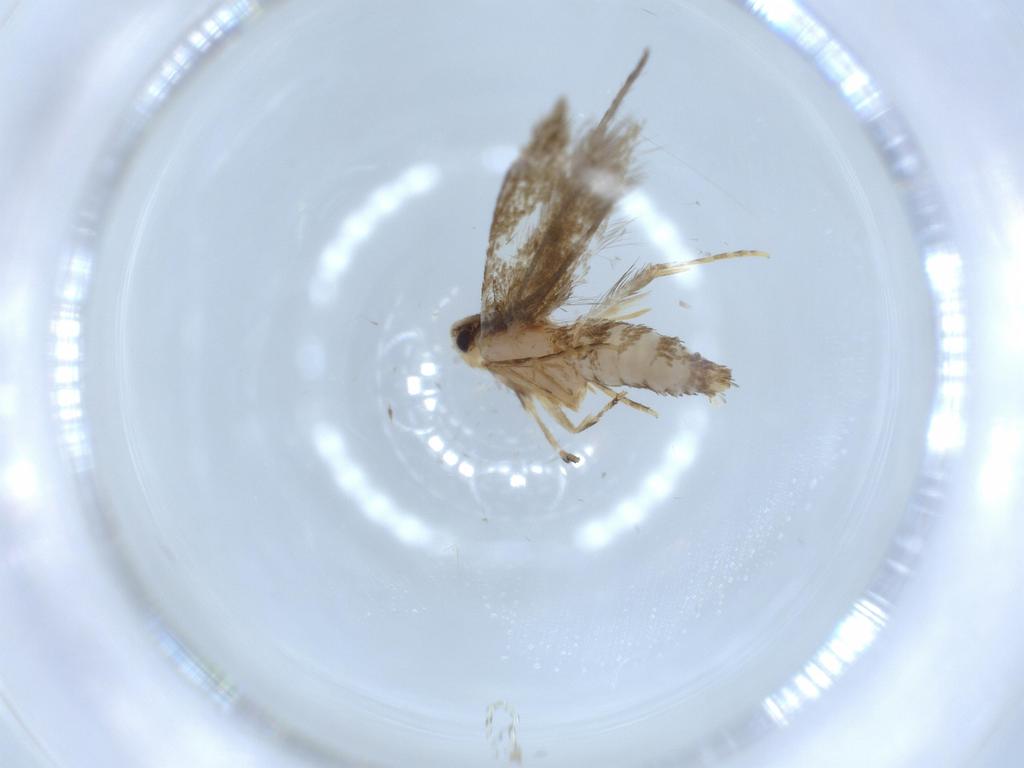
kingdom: Animalia
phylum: Arthropoda
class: Insecta
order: Lepidoptera
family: Tineidae
